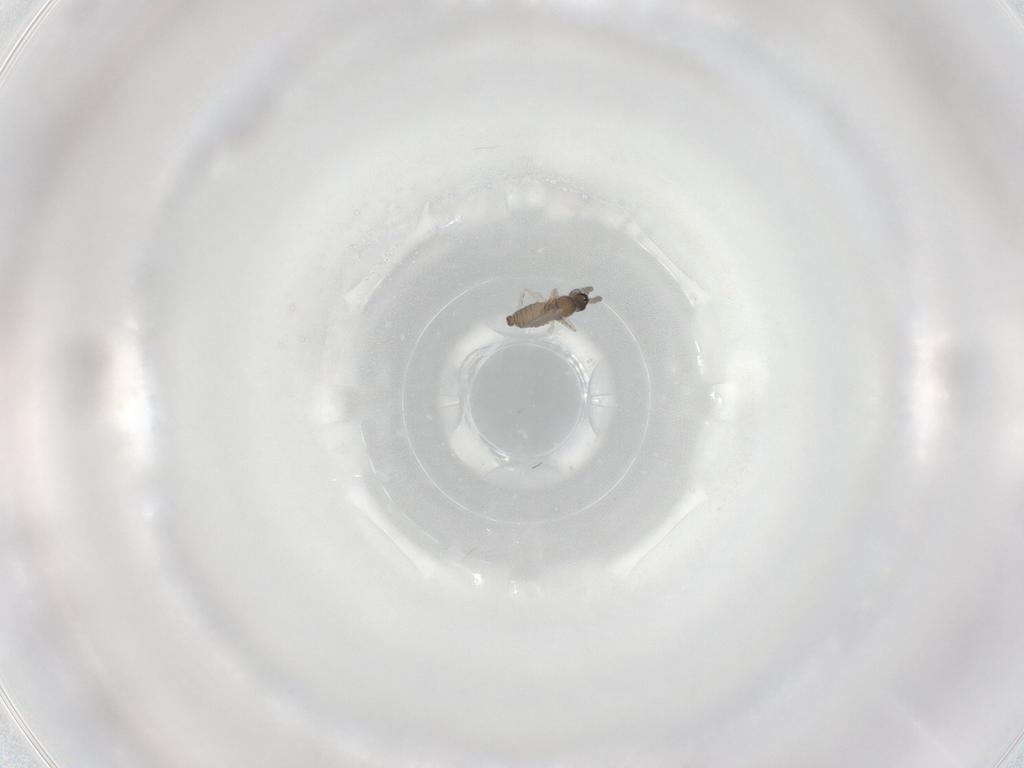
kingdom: Animalia
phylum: Arthropoda
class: Insecta
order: Diptera
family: Cecidomyiidae
